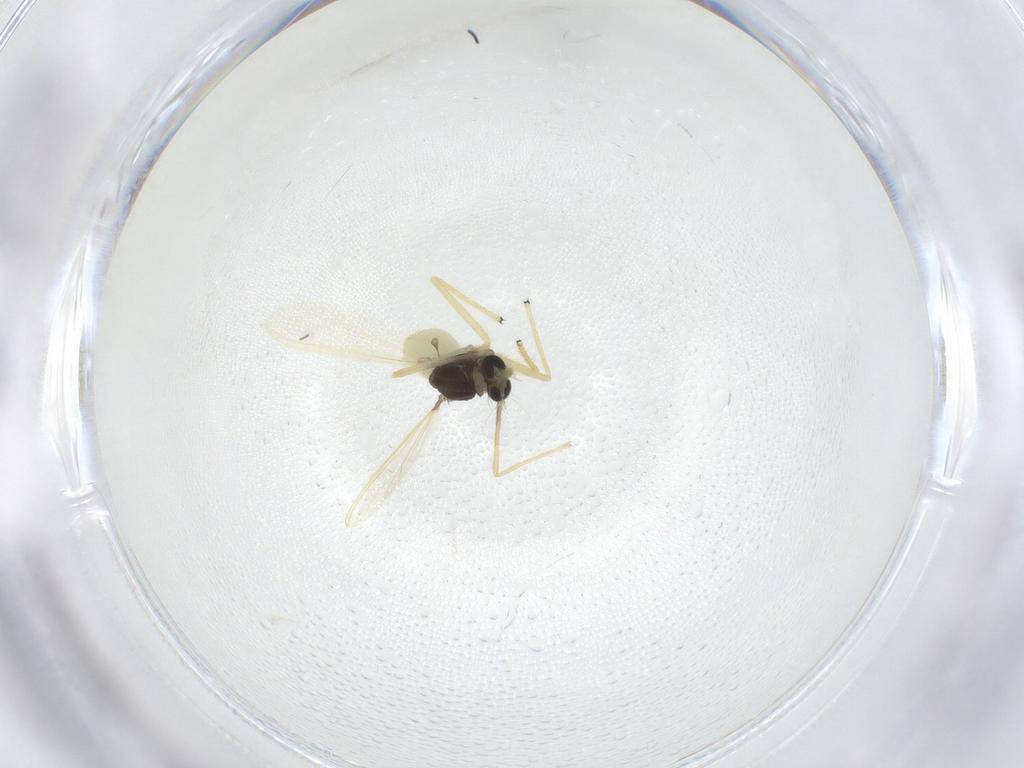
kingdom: Animalia
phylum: Arthropoda
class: Insecta
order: Diptera
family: Chironomidae
